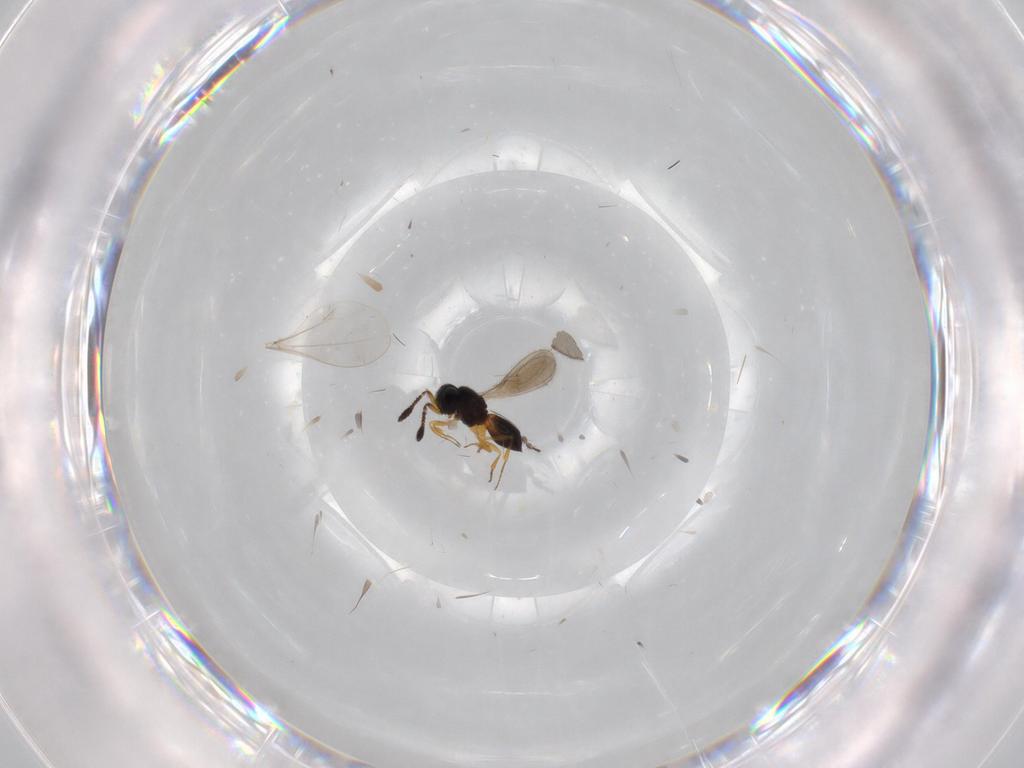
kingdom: Animalia
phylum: Arthropoda
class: Insecta
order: Hymenoptera
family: Scelionidae
